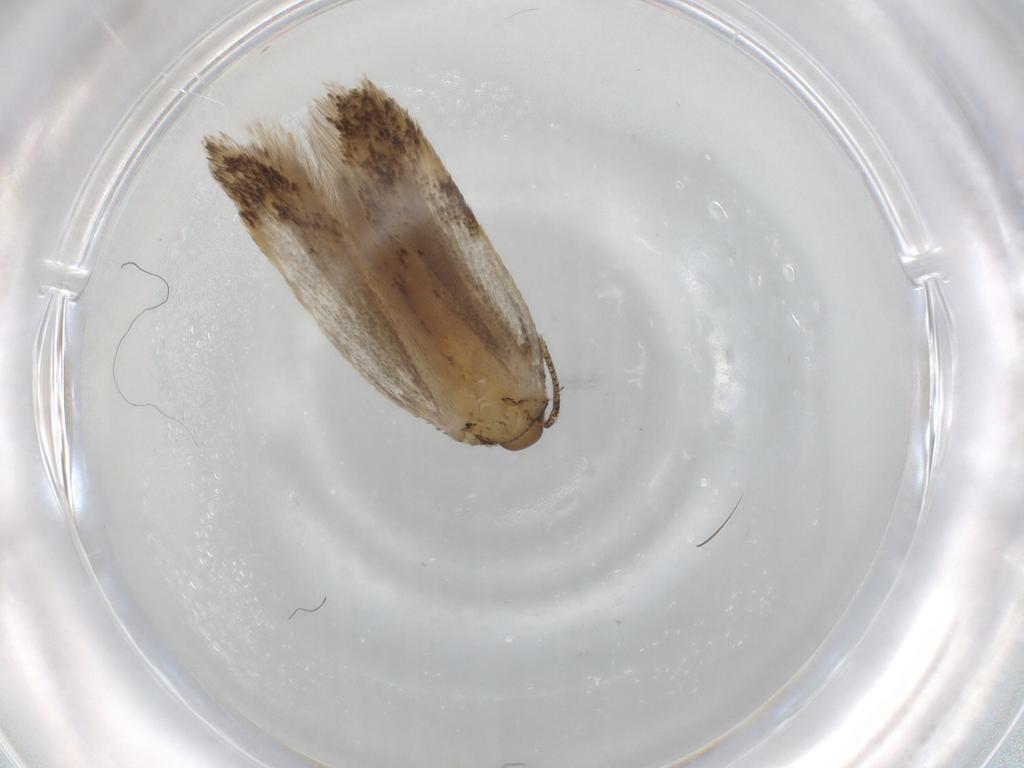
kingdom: Animalia
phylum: Arthropoda
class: Insecta
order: Lepidoptera
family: Autostichidae
